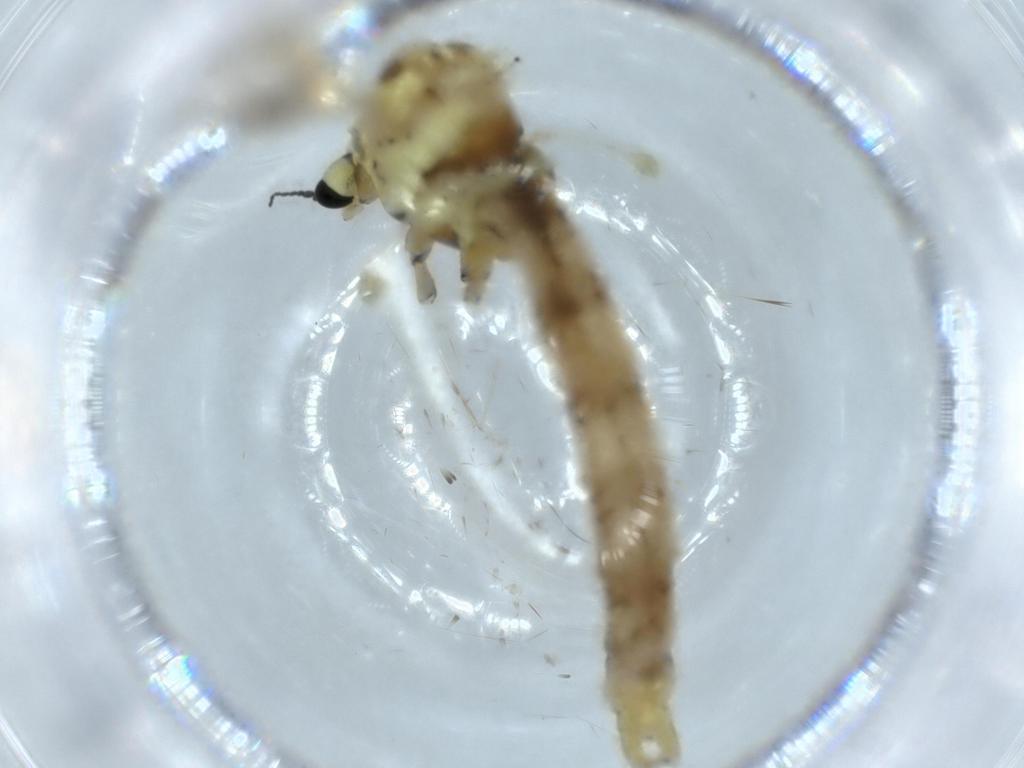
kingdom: Animalia
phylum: Arthropoda
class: Insecta
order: Diptera
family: Limoniidae
